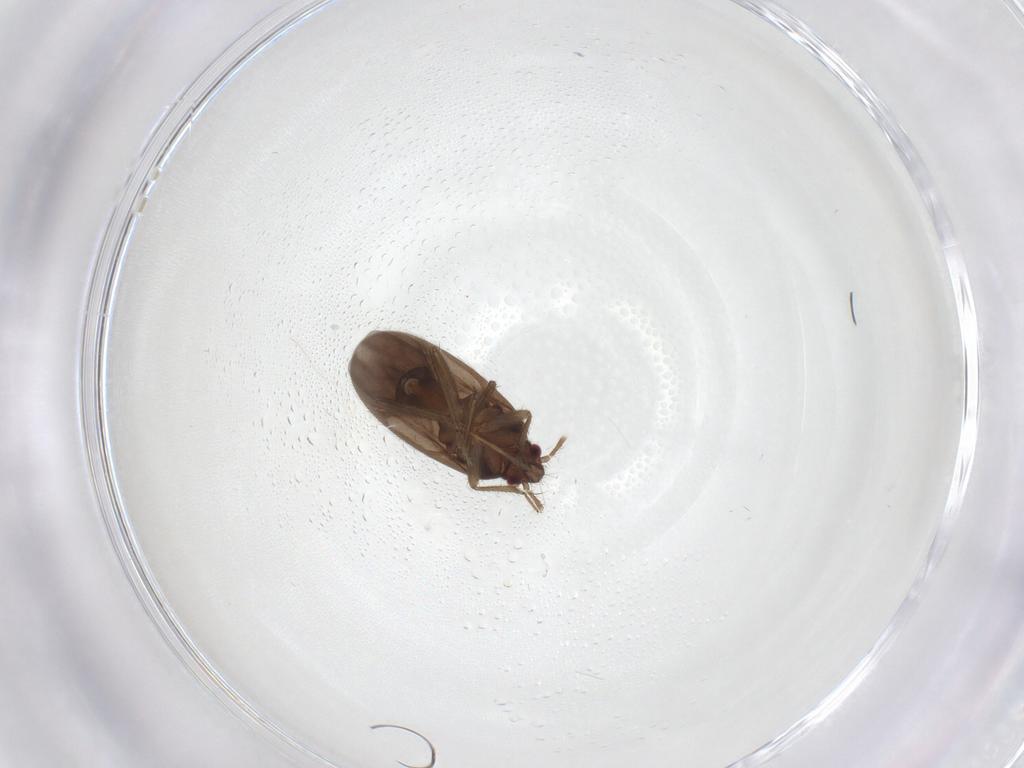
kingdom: Animalia
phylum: Arthropoda
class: Insecta
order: Hemiptera
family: Ceratocombidae
